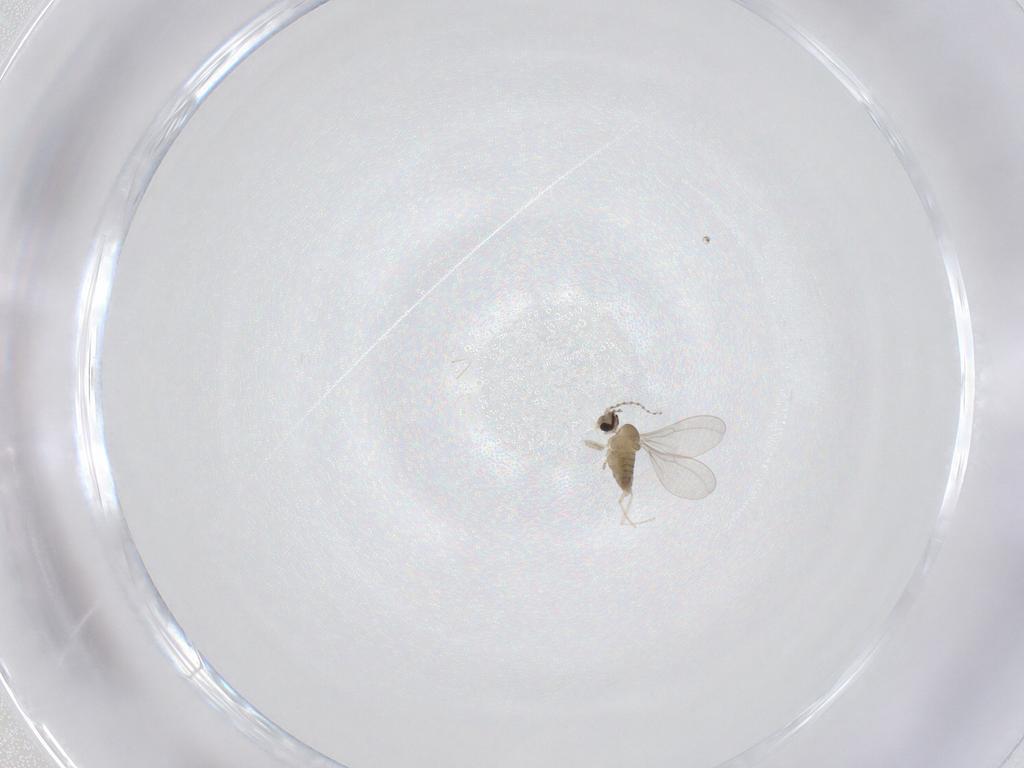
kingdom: Animalia
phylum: Arthropoda
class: Insecta
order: Diptera
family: Cecidomyiidae
